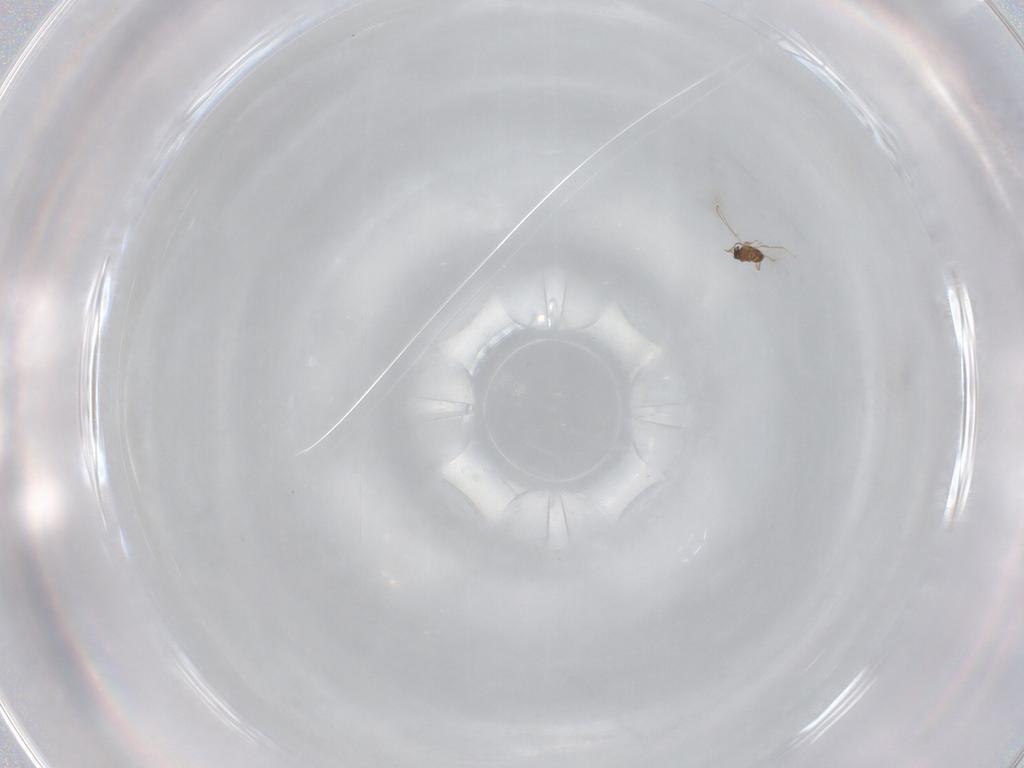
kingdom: Animalia
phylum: Arthropoda
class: Insecta
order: Hymenoptera
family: Mymaridae
